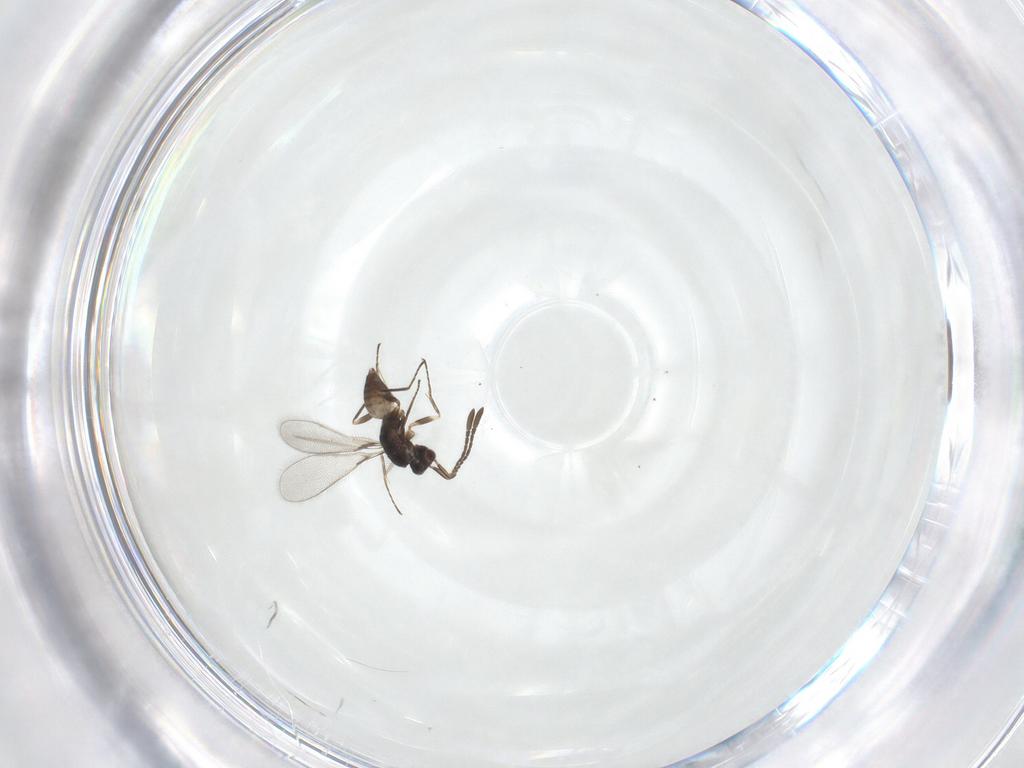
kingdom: Animalia
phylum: Arthropoda
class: Insecta
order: Hymenoptera
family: Mymaridae
